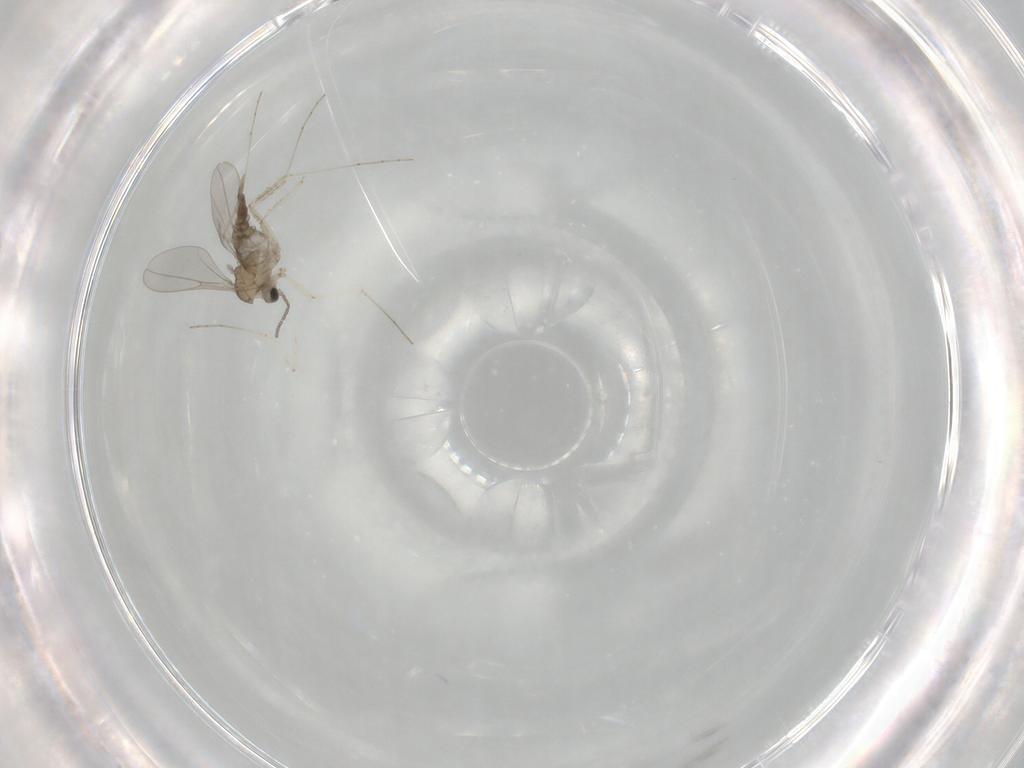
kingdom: Animalia
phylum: Arthropoda
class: Insecta
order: Diptera
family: Cecidomyiidae
